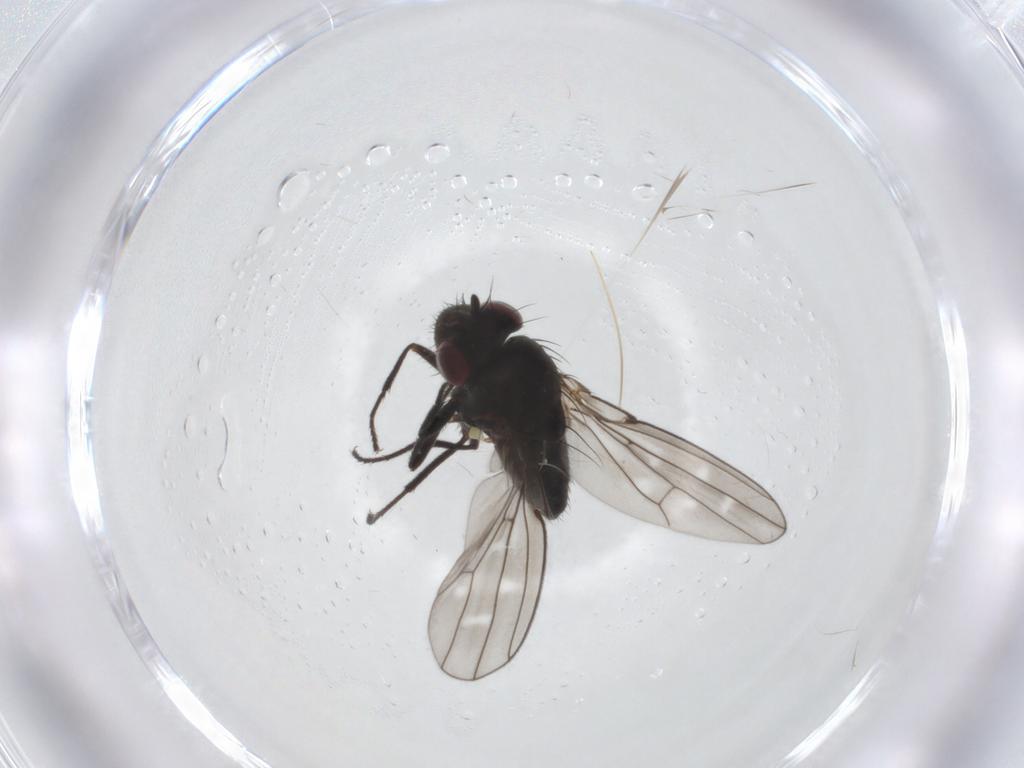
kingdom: Animalia
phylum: Arthropoda
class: Insecta
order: Diptera
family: Ephydridae
